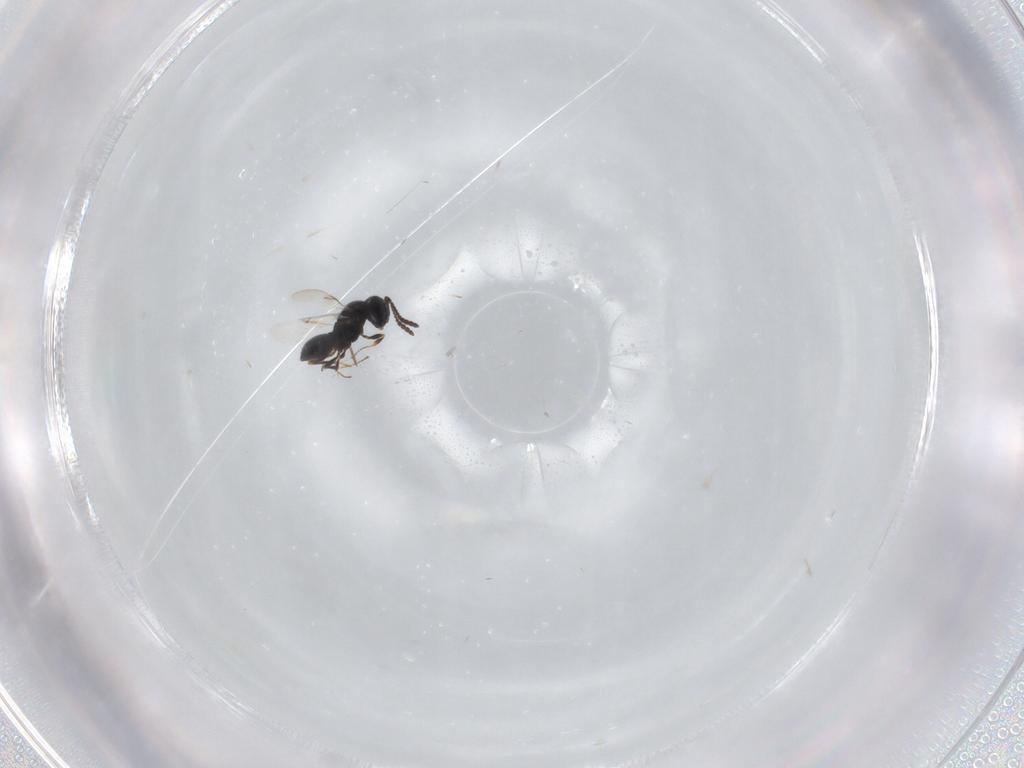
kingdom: Animalia
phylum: Arthropoda
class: Insecta
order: Hymenoptera
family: Scelionidae
